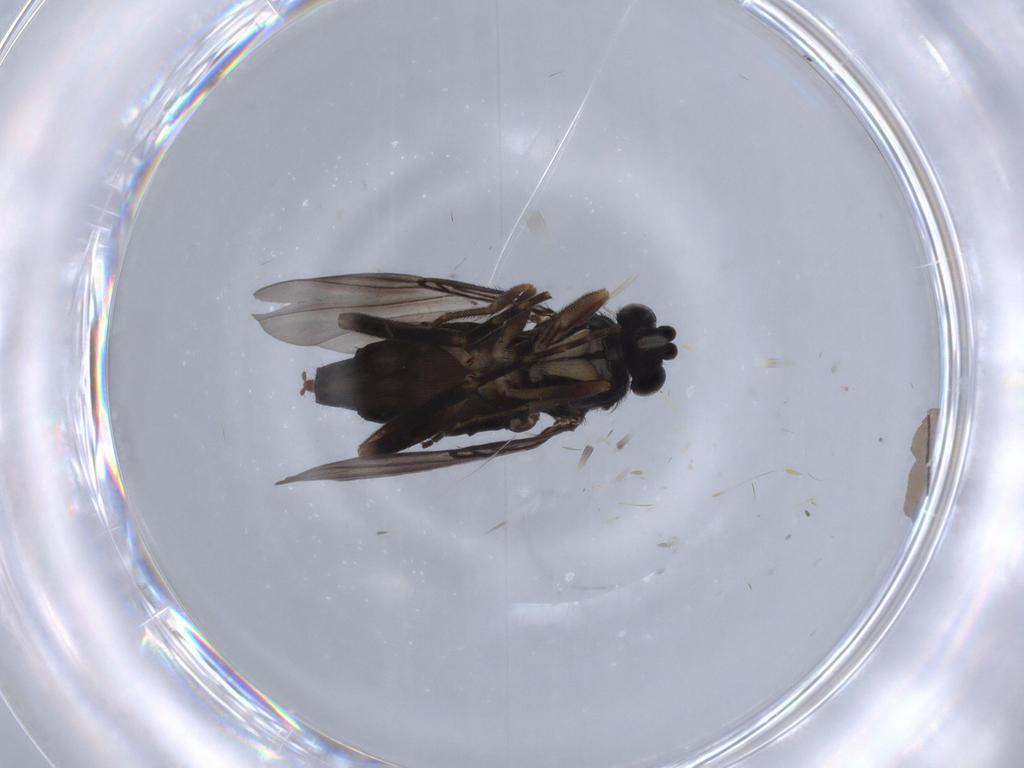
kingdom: Animalia
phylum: Arthropoda
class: Insecta
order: Diptera
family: Phoridae
